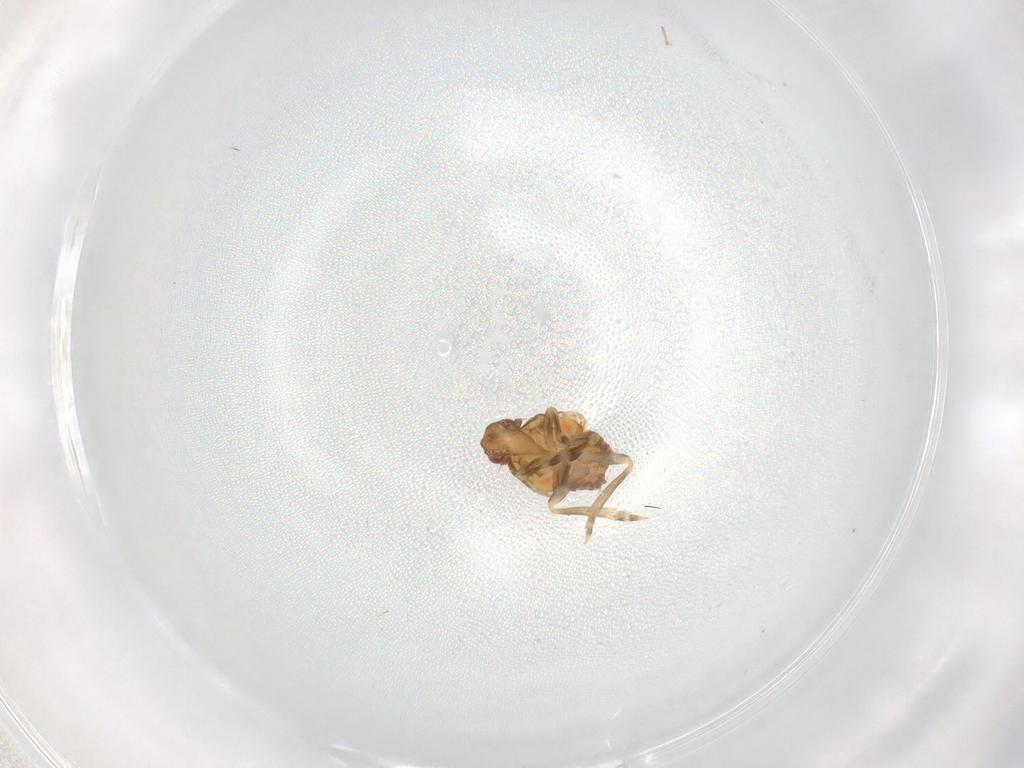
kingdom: Animalia
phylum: Arthropoda
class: Insecta
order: Hemiptera
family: Flatidae
